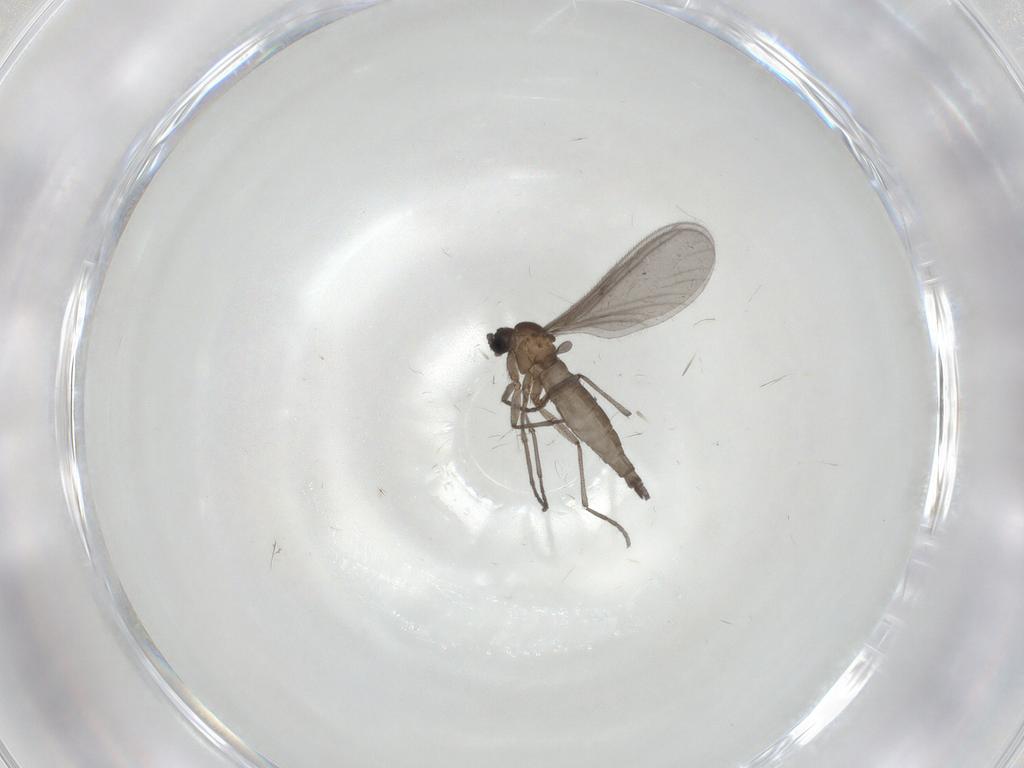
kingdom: Animalia
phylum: Arthropoda
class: Insecta
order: Diptera
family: Sciaridae
